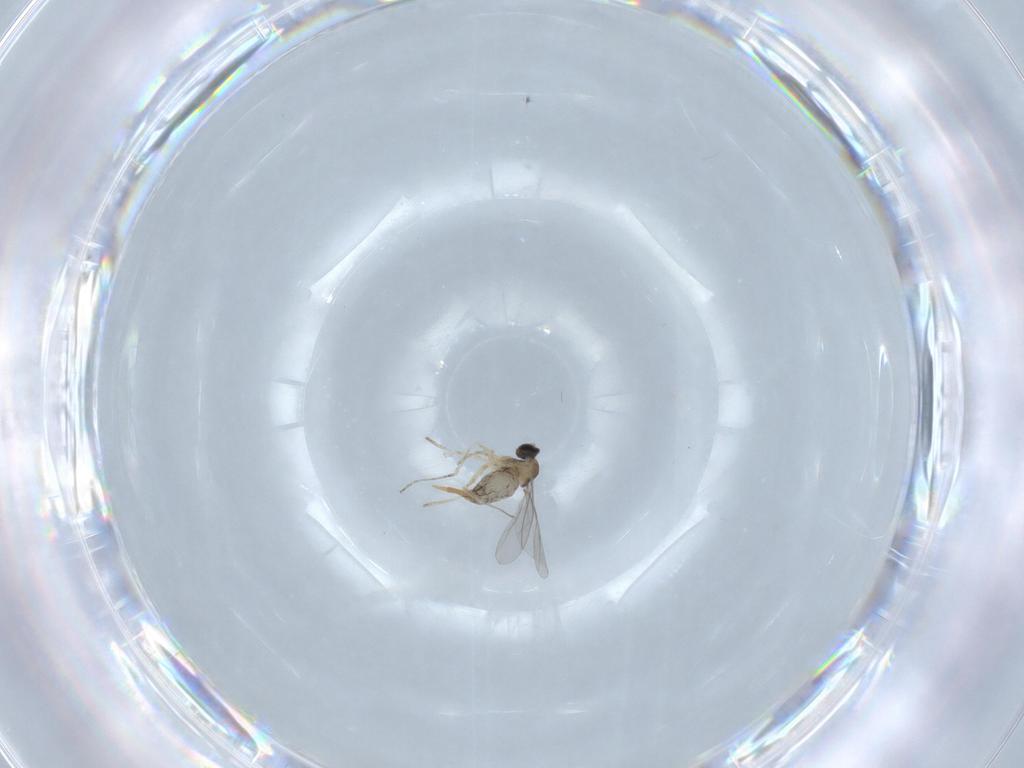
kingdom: Animalia
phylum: Arthropoda
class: Insecta
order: Diptera
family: Cecidomyiidae
